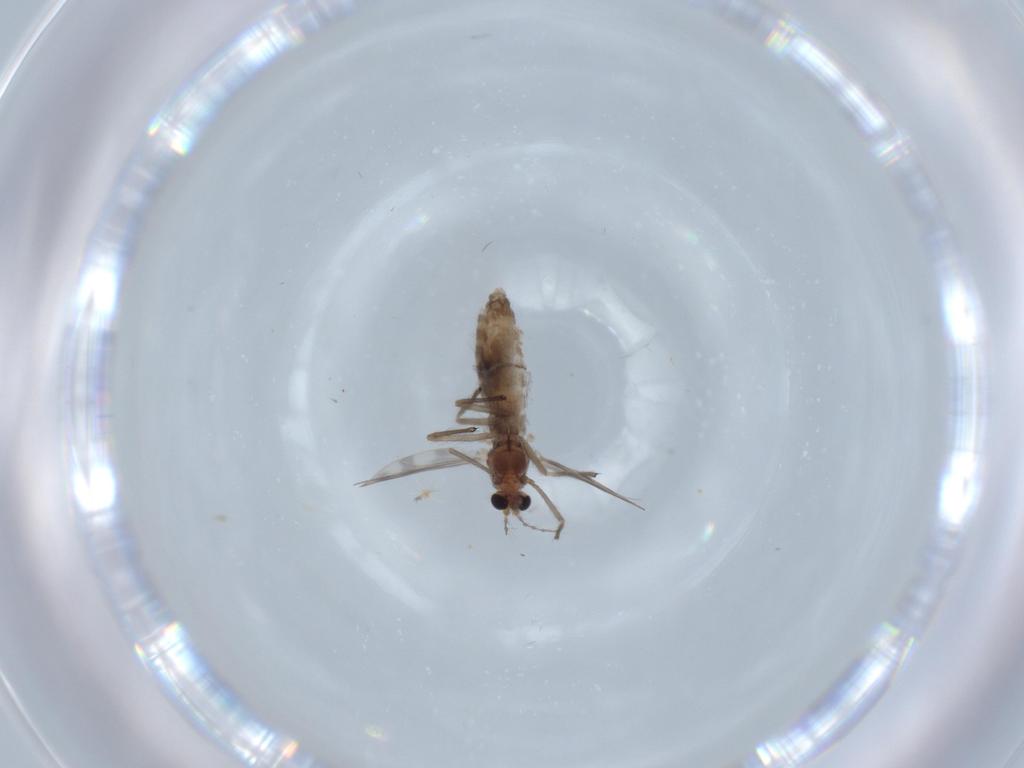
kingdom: Animalia
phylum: Arthropoda
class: Insecta
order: Diptera
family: Chironomidae
